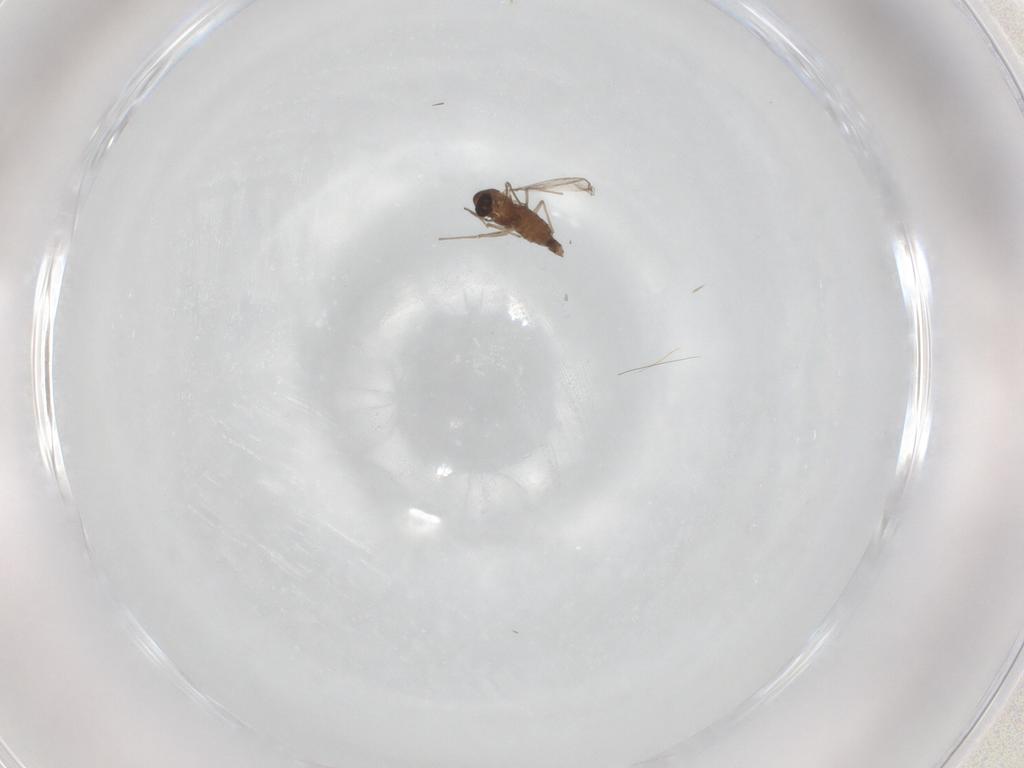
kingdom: Animalia
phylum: Arthropoda
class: Insecta
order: Diptera
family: Chironomidae
